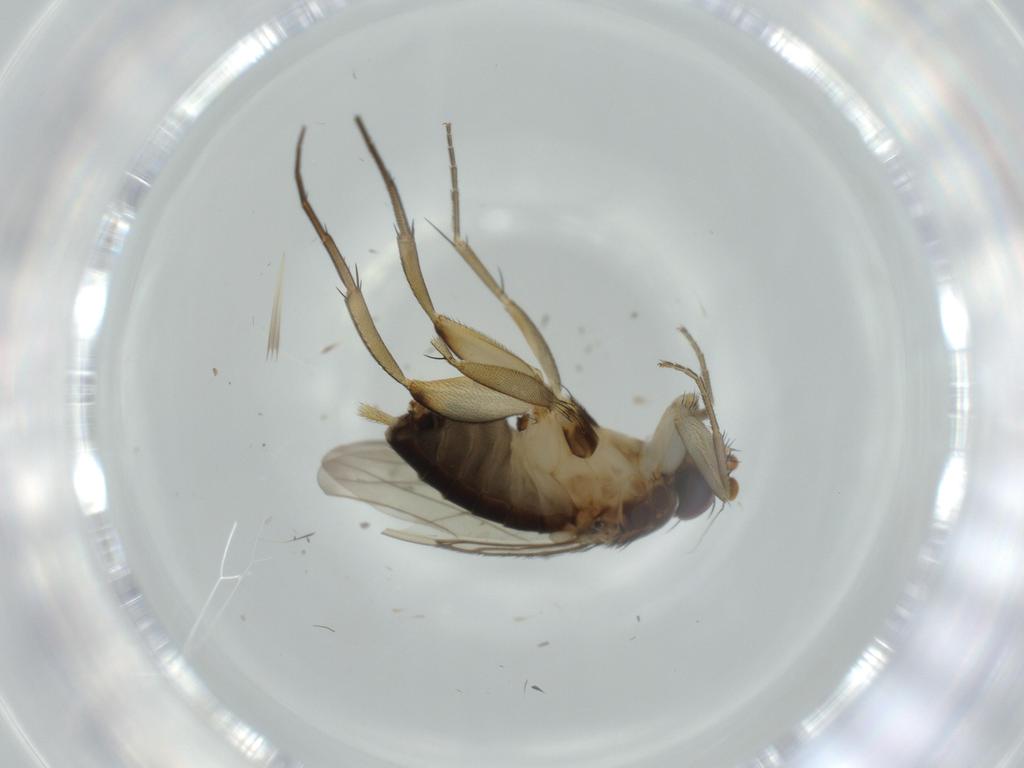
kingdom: Animalia
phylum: Arthropoda
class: Insecta
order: Diptera
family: Phoridae
